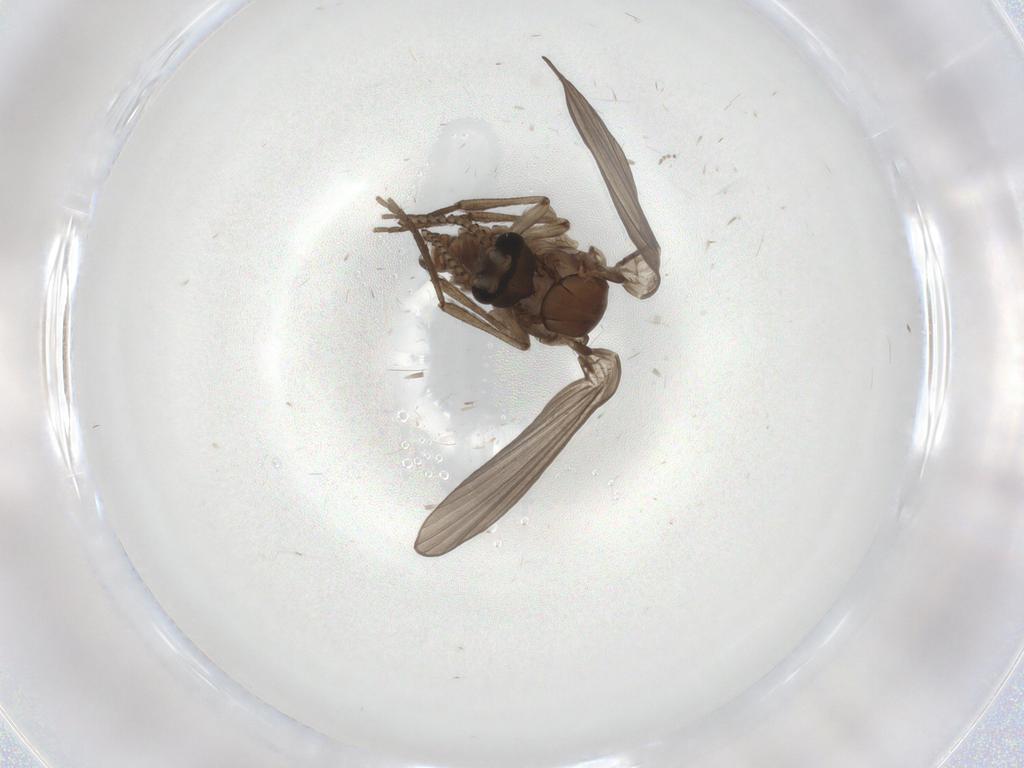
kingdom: Animalia
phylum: Arthropoda
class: Insecta
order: Diptera
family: Psychodidae
